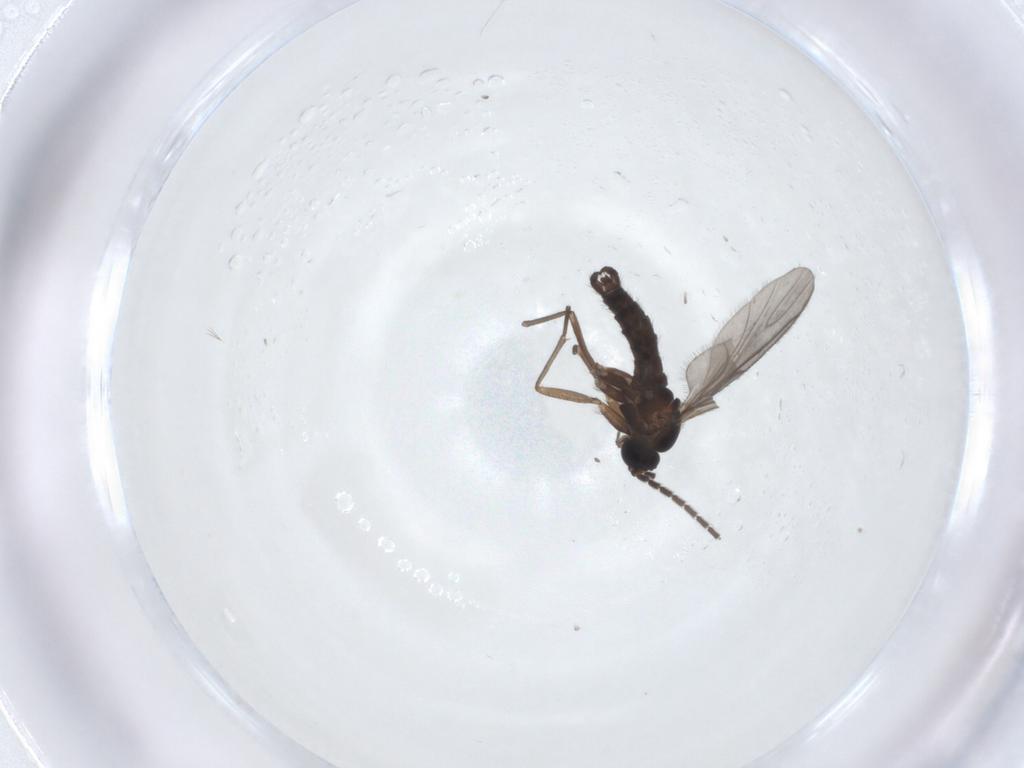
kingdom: Animalia
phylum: Arthropoda
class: Insecta
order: Diptera
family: Sciaridae
